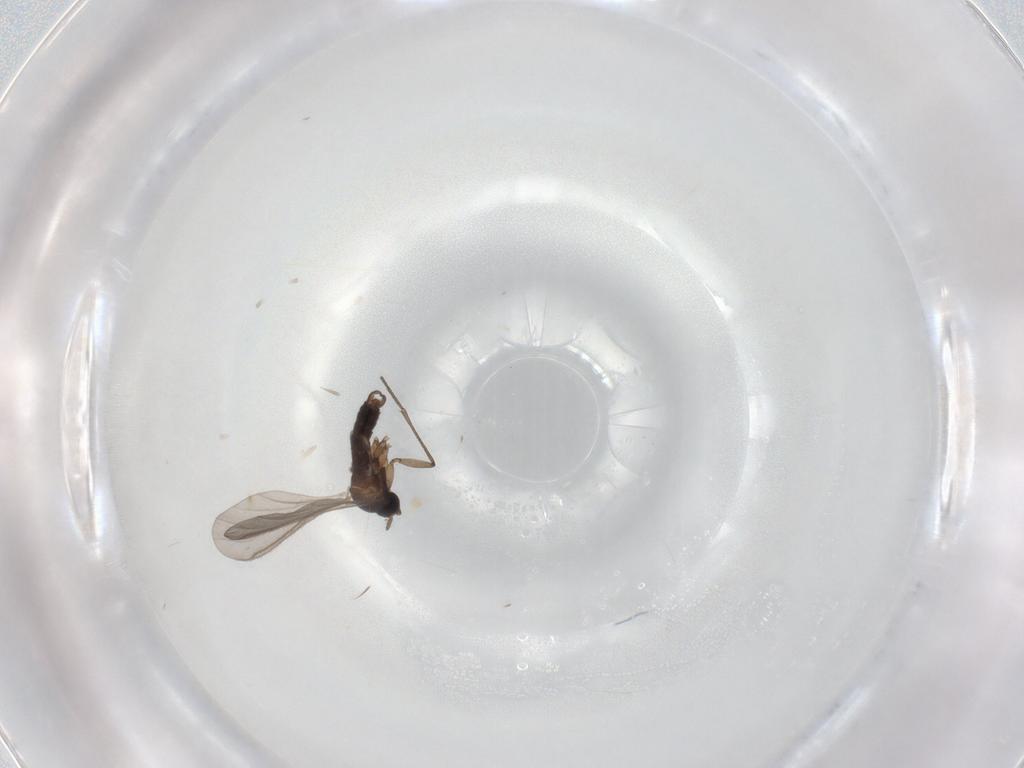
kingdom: Animalia
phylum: Arthropoda
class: Insecta
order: Diptera
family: Sciaridae
